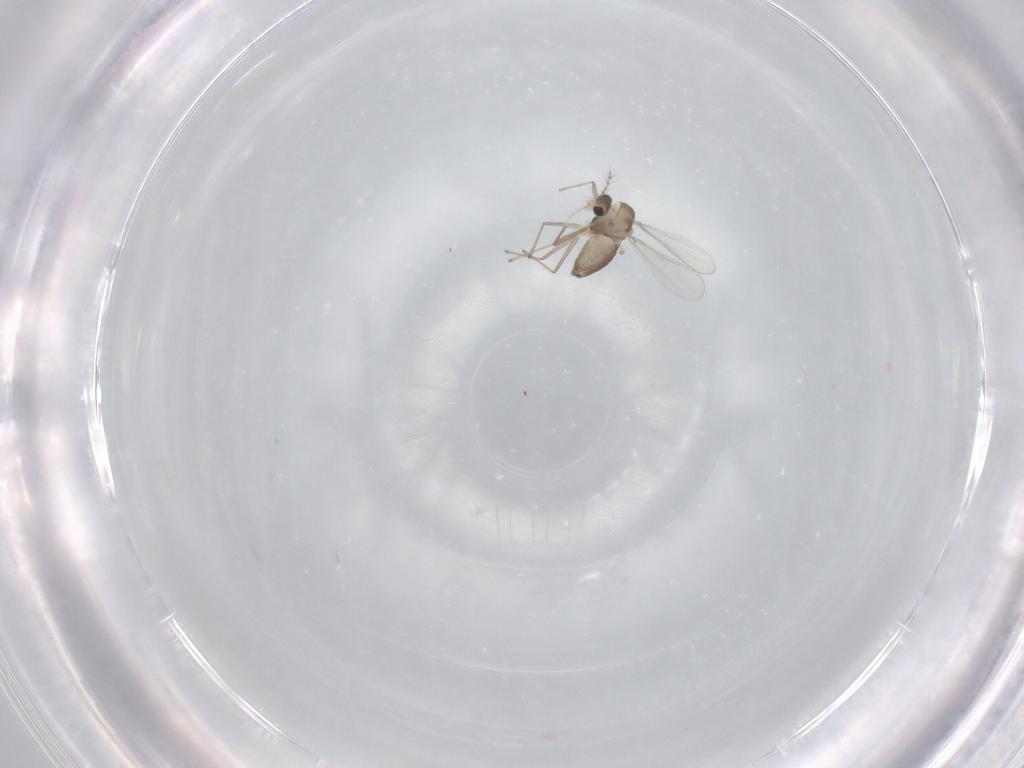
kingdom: Animalia
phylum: Arthropoda
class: Insecta
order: Diptera
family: Chironomidae
